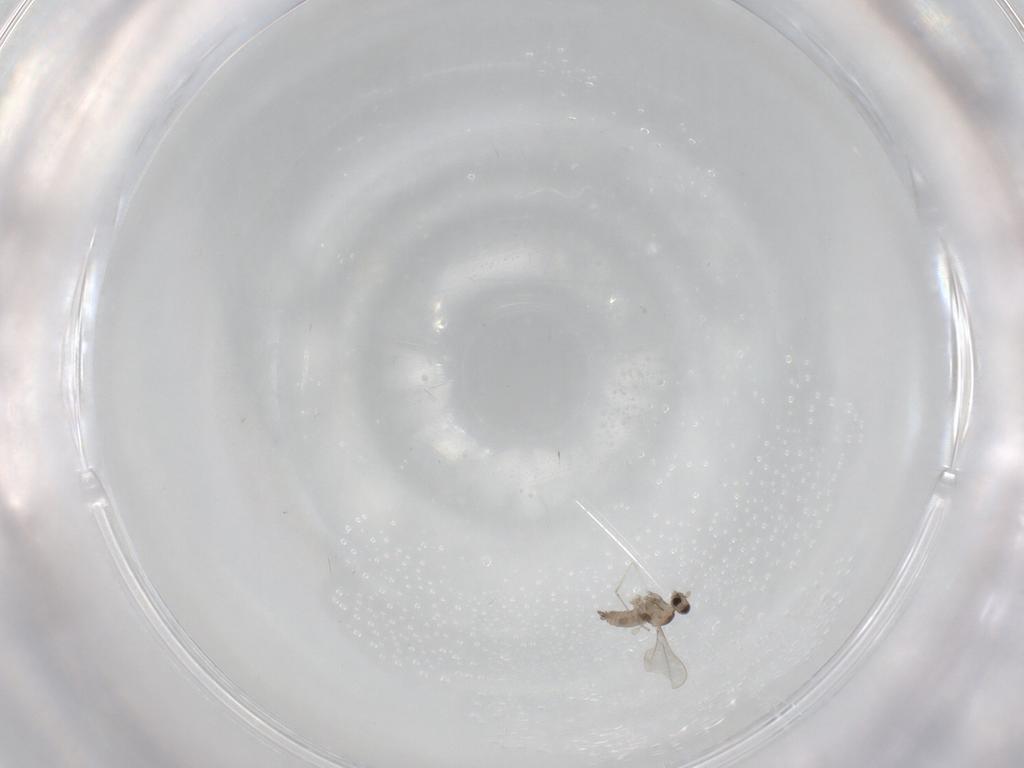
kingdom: Animalia
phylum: Arthropoda
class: Insecta
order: Diptera
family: Cecidomyiidae
